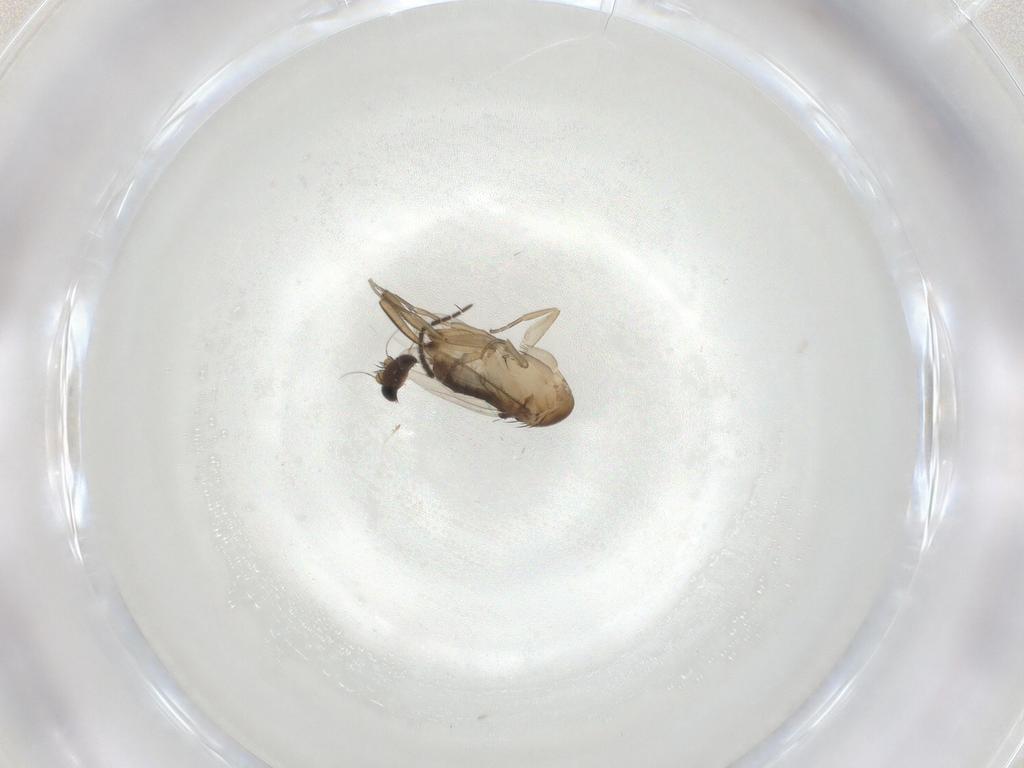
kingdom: Animalia
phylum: Arthropoda
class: Insecta
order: Diptera
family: Phoridae
